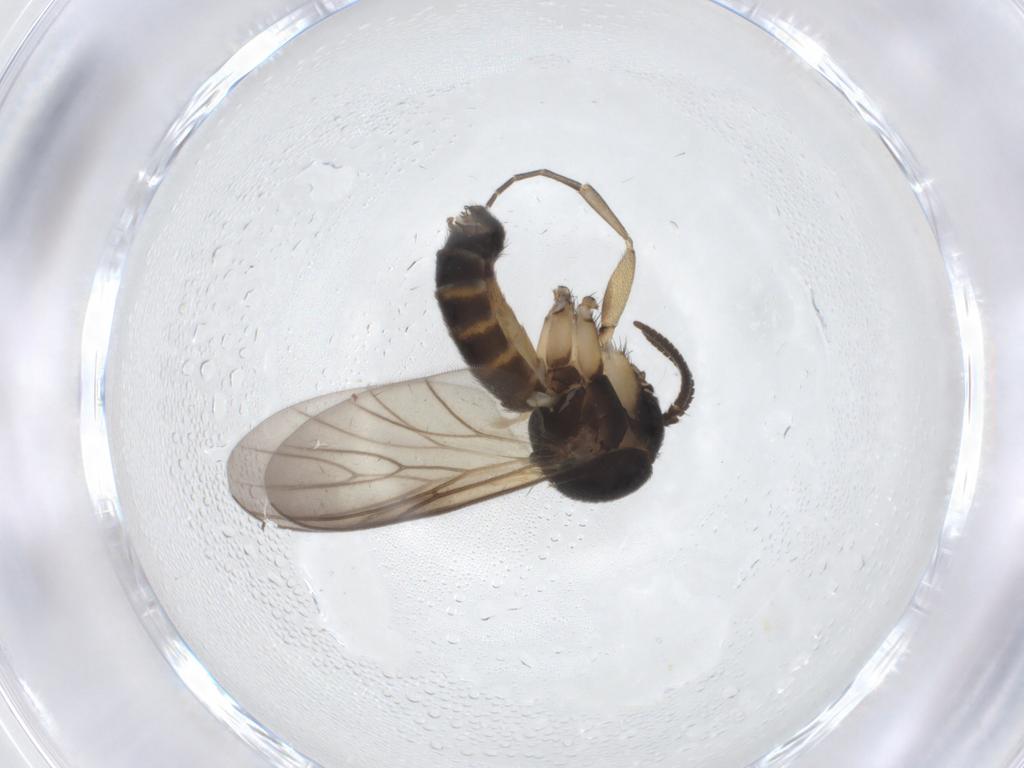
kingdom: Animalia
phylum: Arthropoda
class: Insecta
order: Diptera
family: Mycetophilidae
